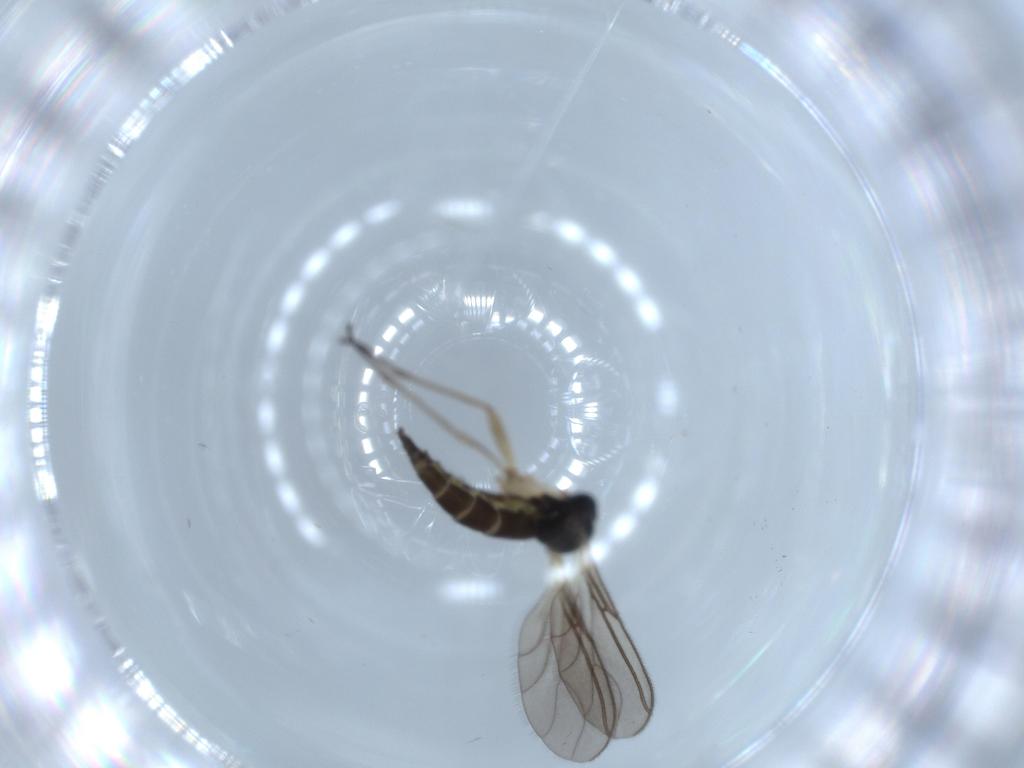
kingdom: Animalia
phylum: Arthropoda
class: Insecta
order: Diptera
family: Sciaridae
